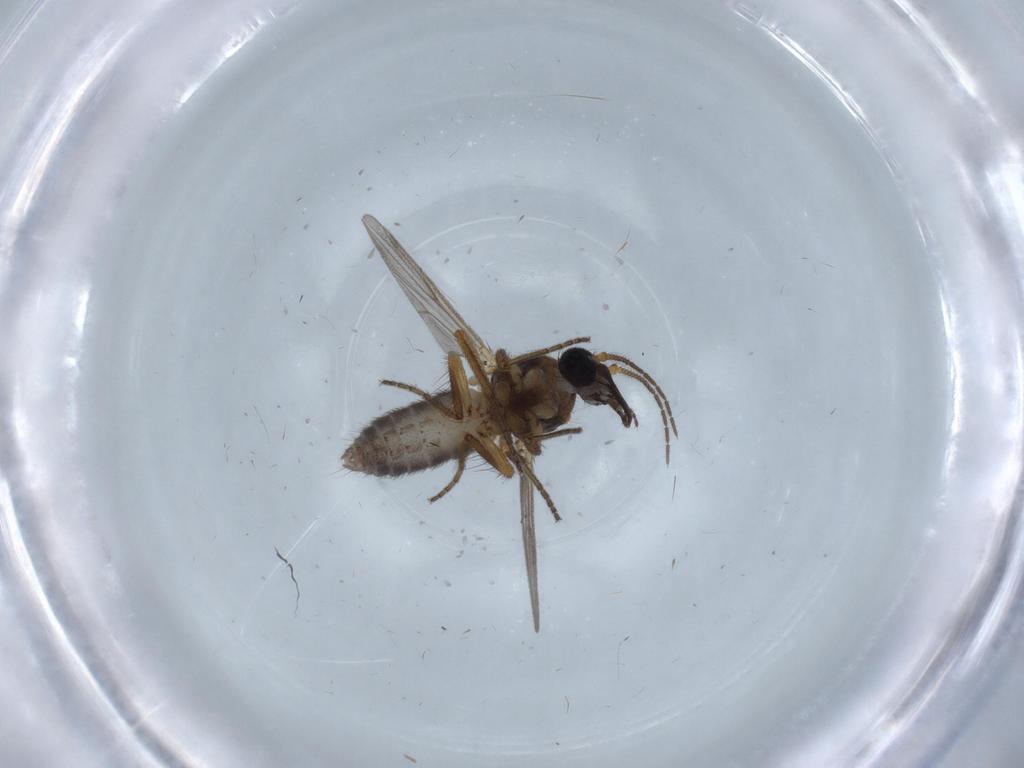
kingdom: Animalia
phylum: Arthropoda
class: Insecta
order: Diptera
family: Ceratopogonidae
